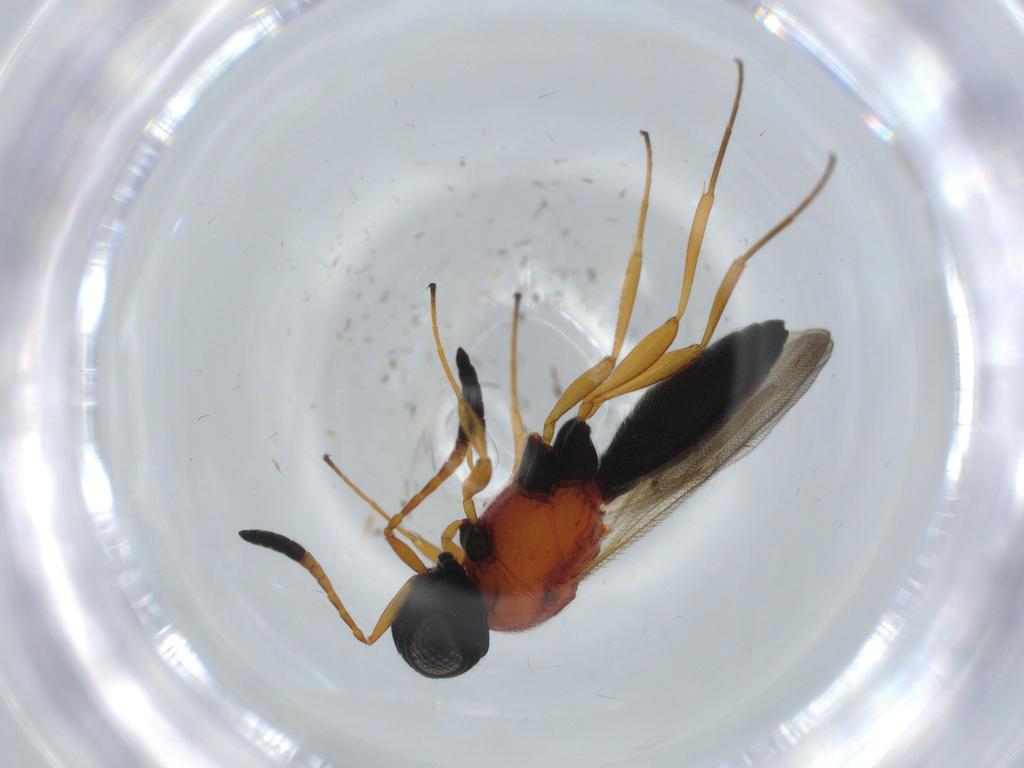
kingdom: Animalia
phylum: Arthropoda
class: Insecta
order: Hymenoptera
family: Scelionidae
